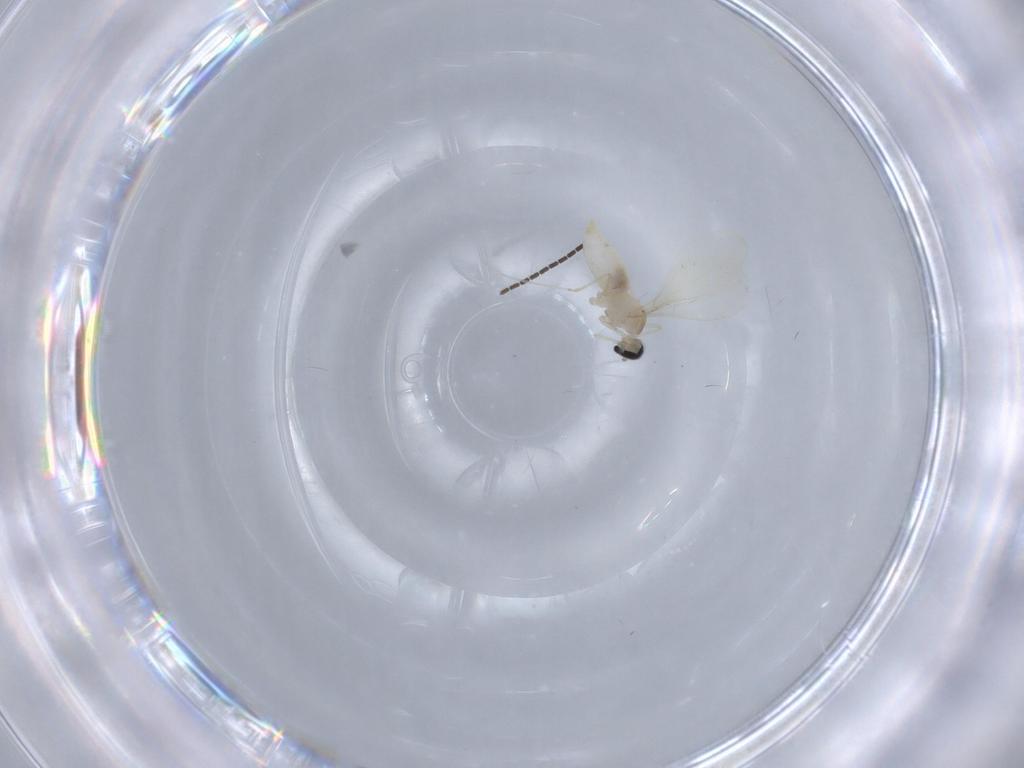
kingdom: Animalia
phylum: Arthropoda
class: Insecta
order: Diptera
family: Cecidomyiidae
